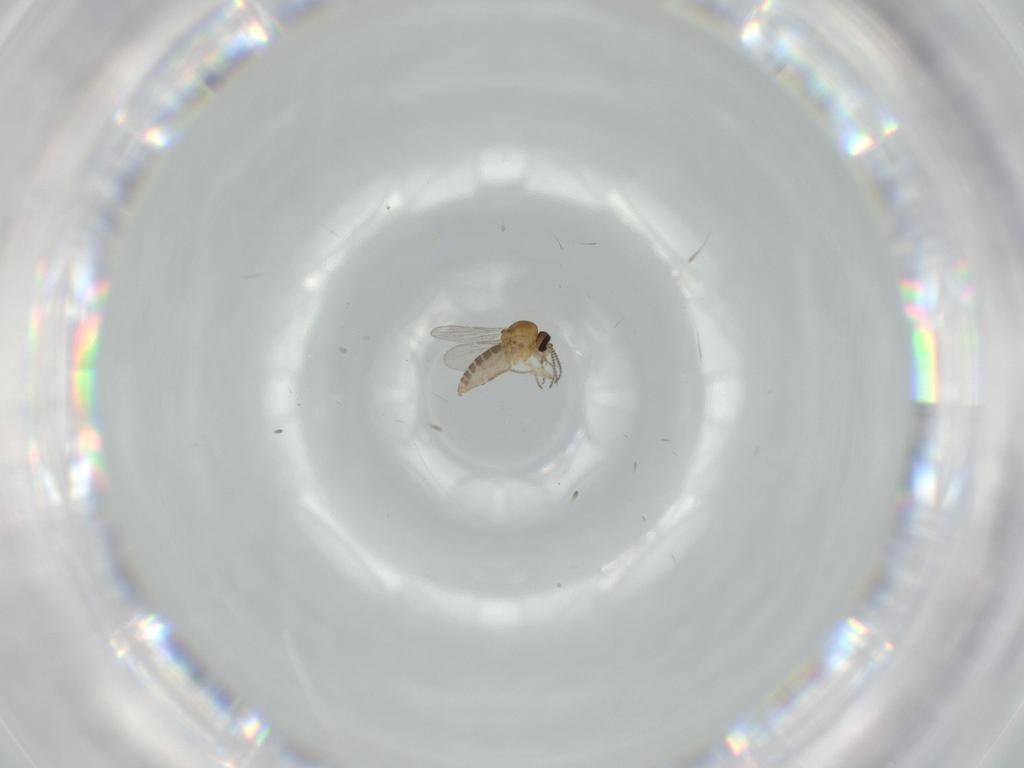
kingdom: Animalia
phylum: Arthropoda
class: Insecta
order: Diptera
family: Ceratopogonidae
